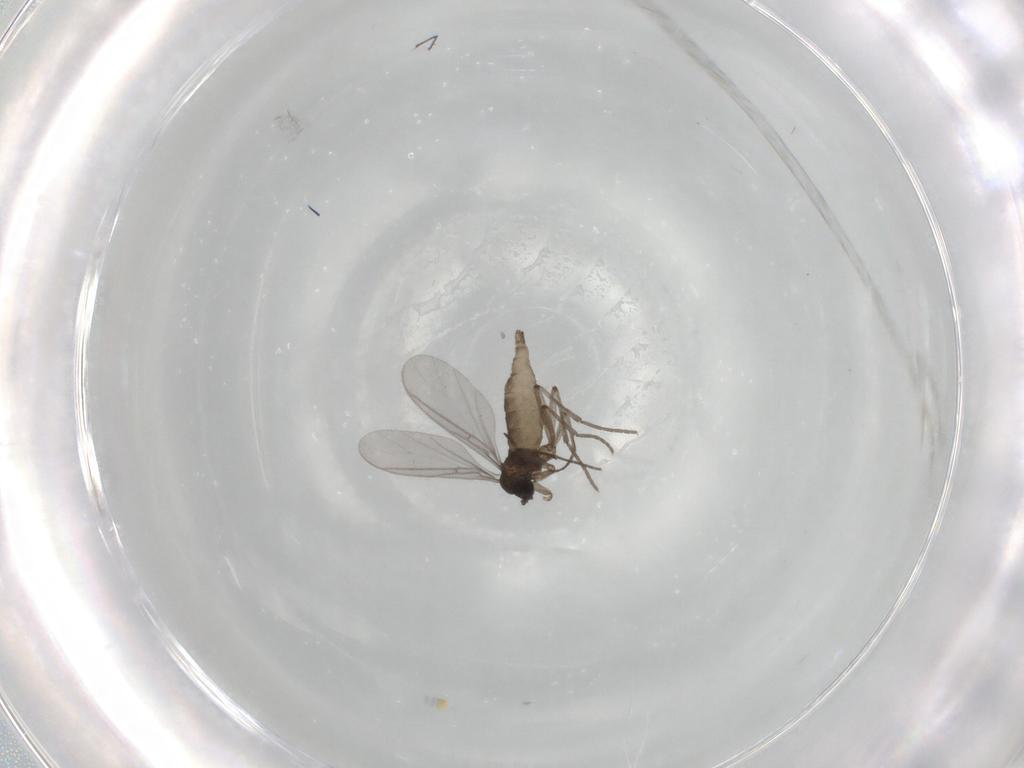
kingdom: Animalia
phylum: Arthropoda
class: Insecta
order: Diptera
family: Sciaridae
